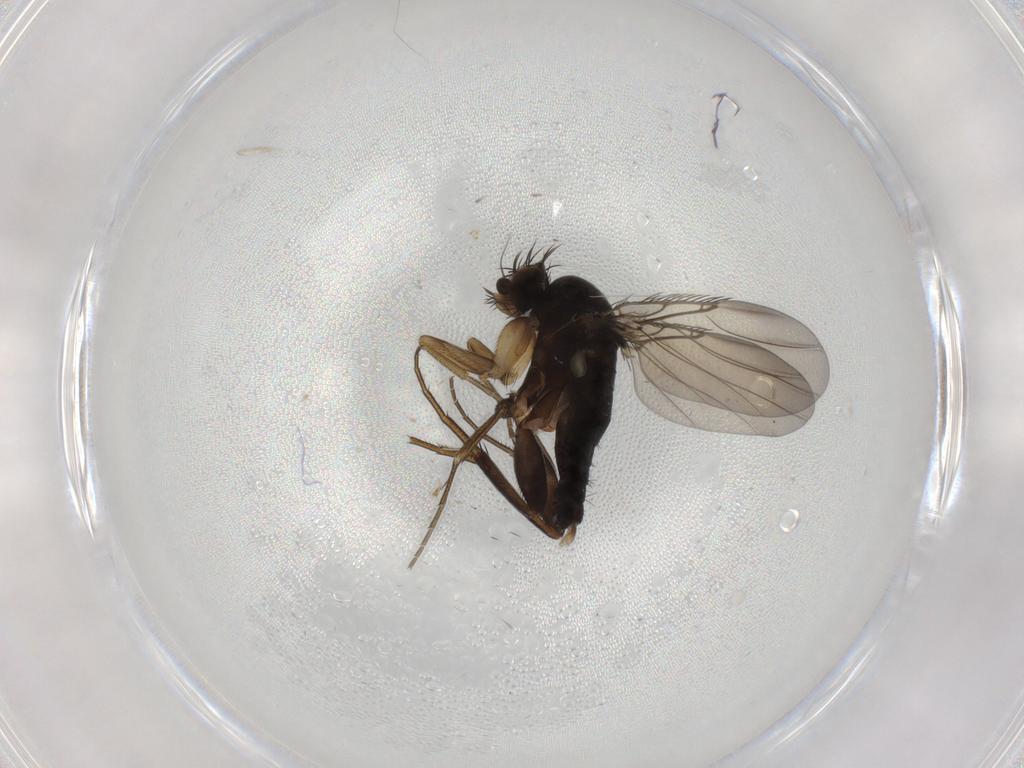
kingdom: Animalia
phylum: Arthropoda
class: Insecta
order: Diptera
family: Phoridae
